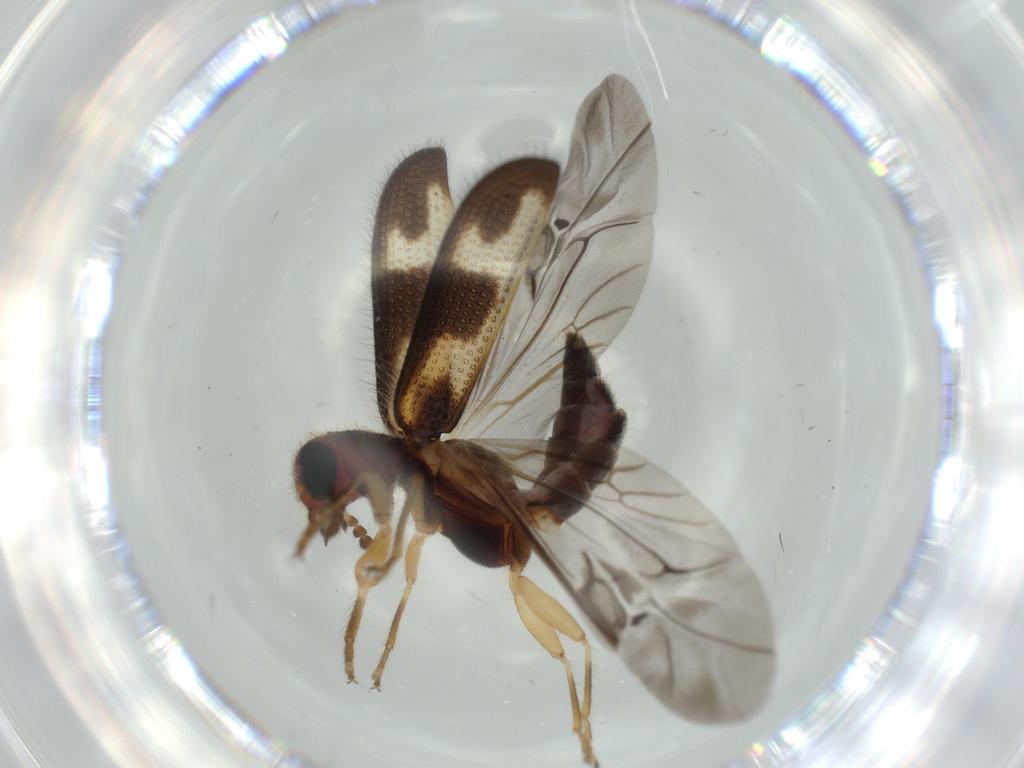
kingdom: Animalia
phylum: Arthropoda
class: Insecta
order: Coleoptera
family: Cleridae
